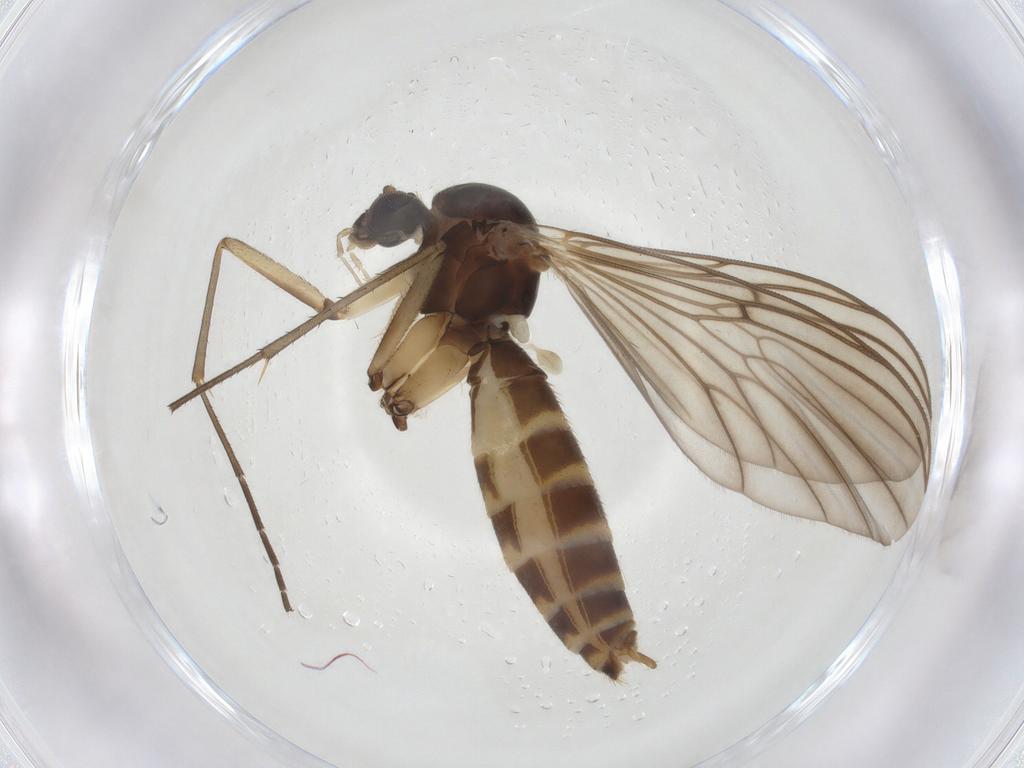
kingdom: Animalia
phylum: Arthropoda
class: Insecta
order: Diptera
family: Mycetophilidae
